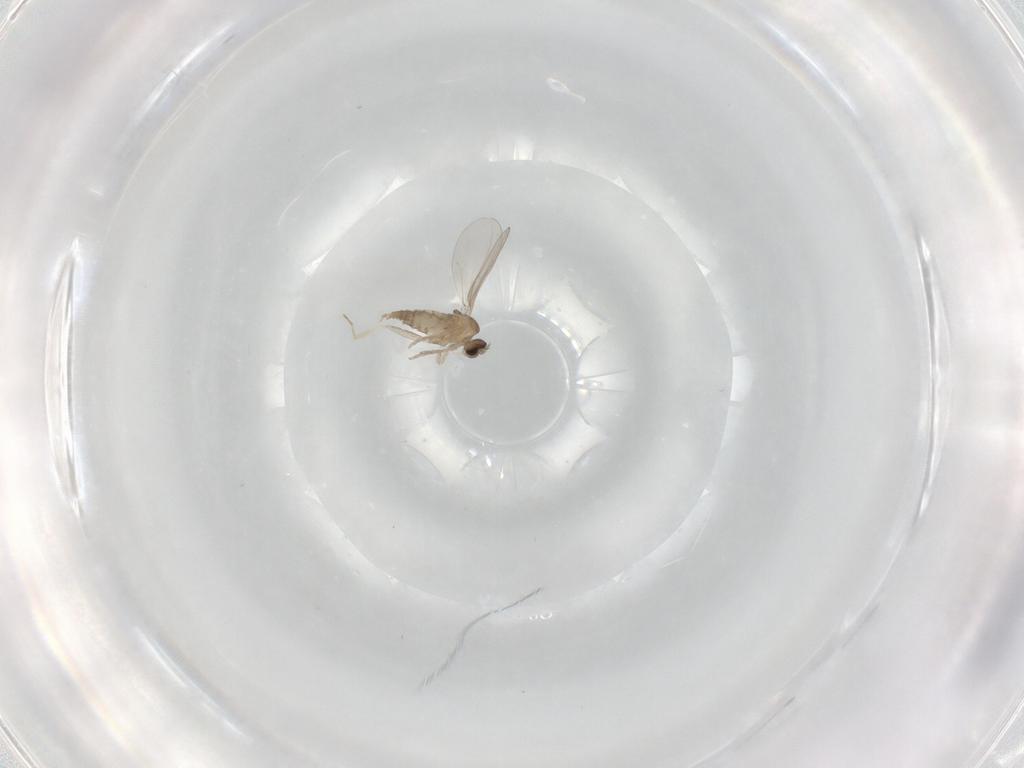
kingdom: Animalia
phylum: Arthropoda
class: Insecta
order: Diptera
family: Cecidomyiidae
